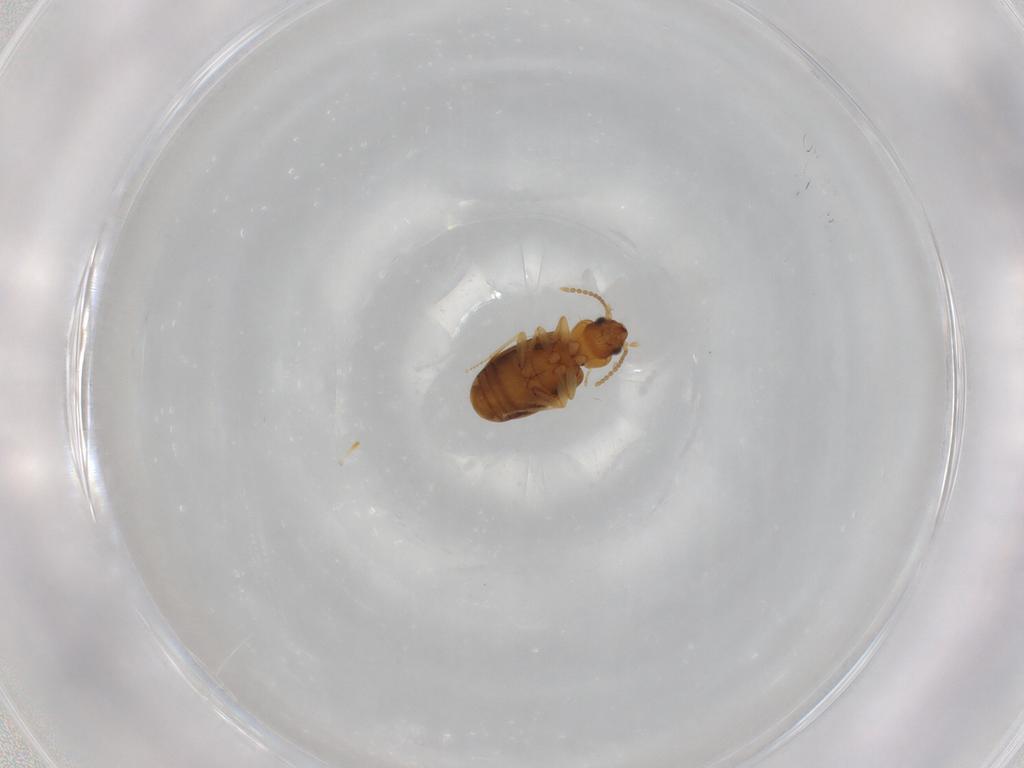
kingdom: Animalia
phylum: Arthropoda
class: Insecta
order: Coleoptera
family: Carabidae
